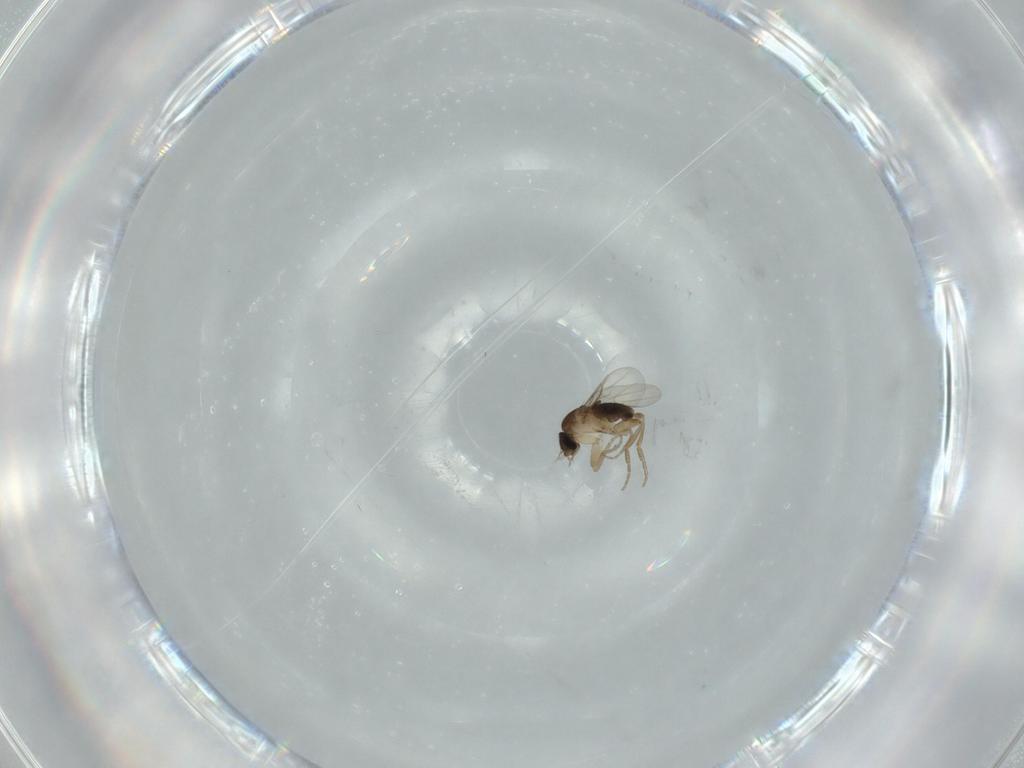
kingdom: Animalia
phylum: Arthropoda
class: Insecta
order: Diptera
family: Phoridae
